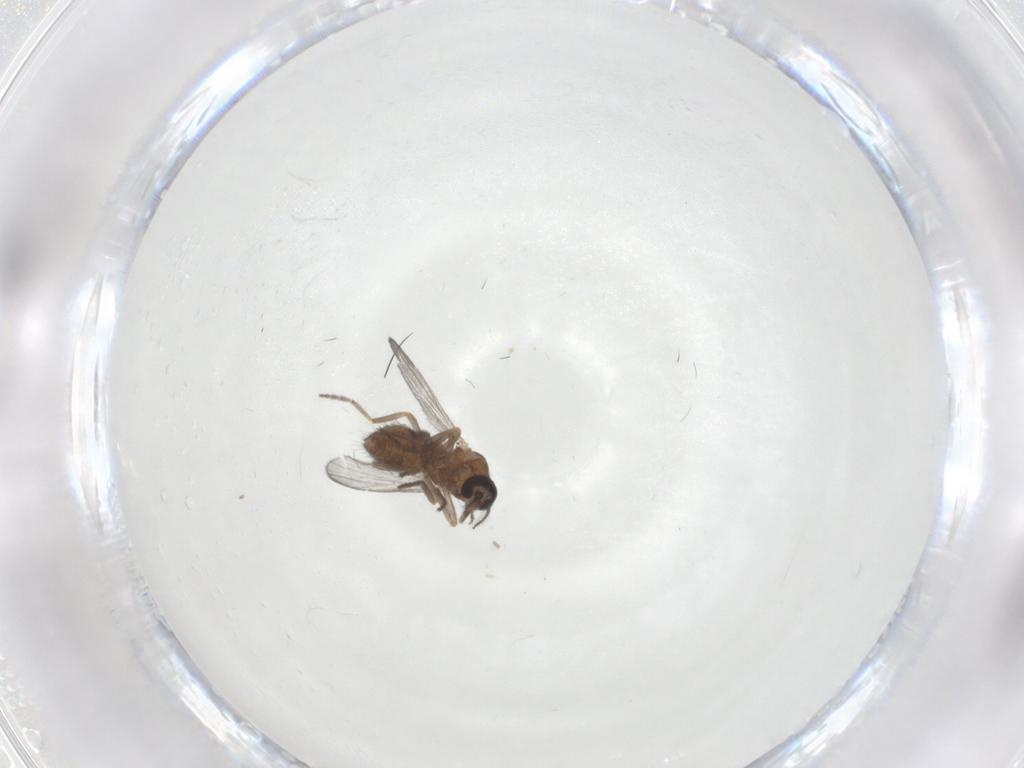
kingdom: Animalia
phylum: Arthropoda
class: Insecta
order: Diptera
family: Ceratopogonidae
